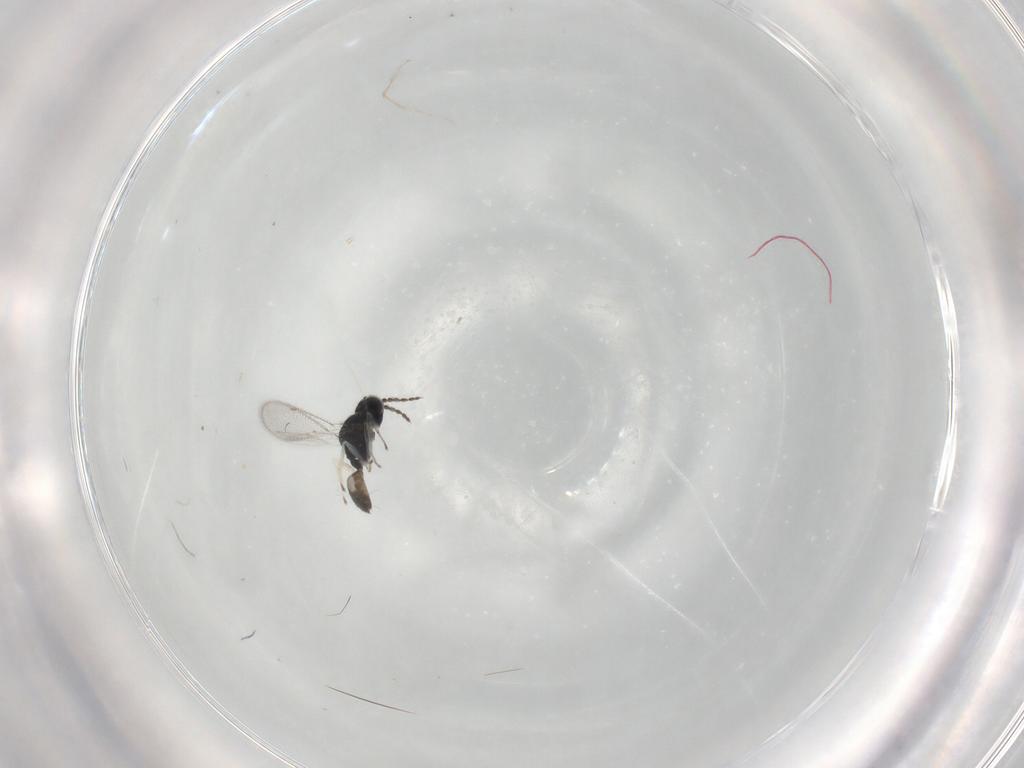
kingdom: Animalia
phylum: Arthropoda
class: Insecta
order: Hymenoptera
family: Eulophidae
